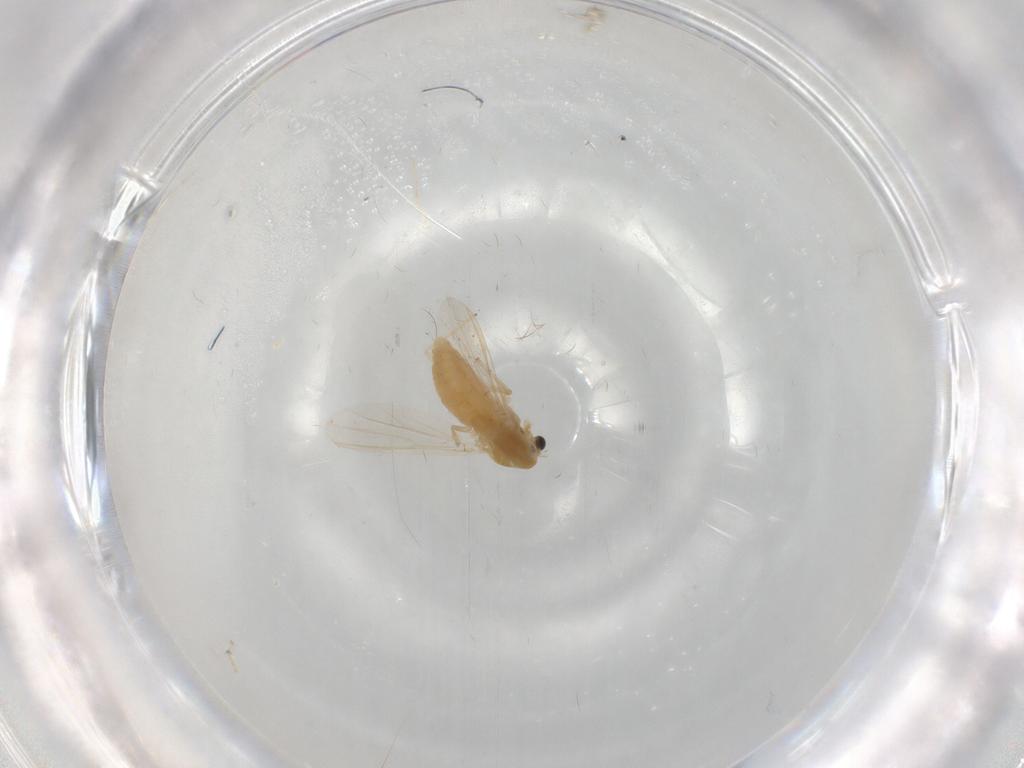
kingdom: Animalia
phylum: Arthropoda
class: Insecta
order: Diptera
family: Chironomidae
